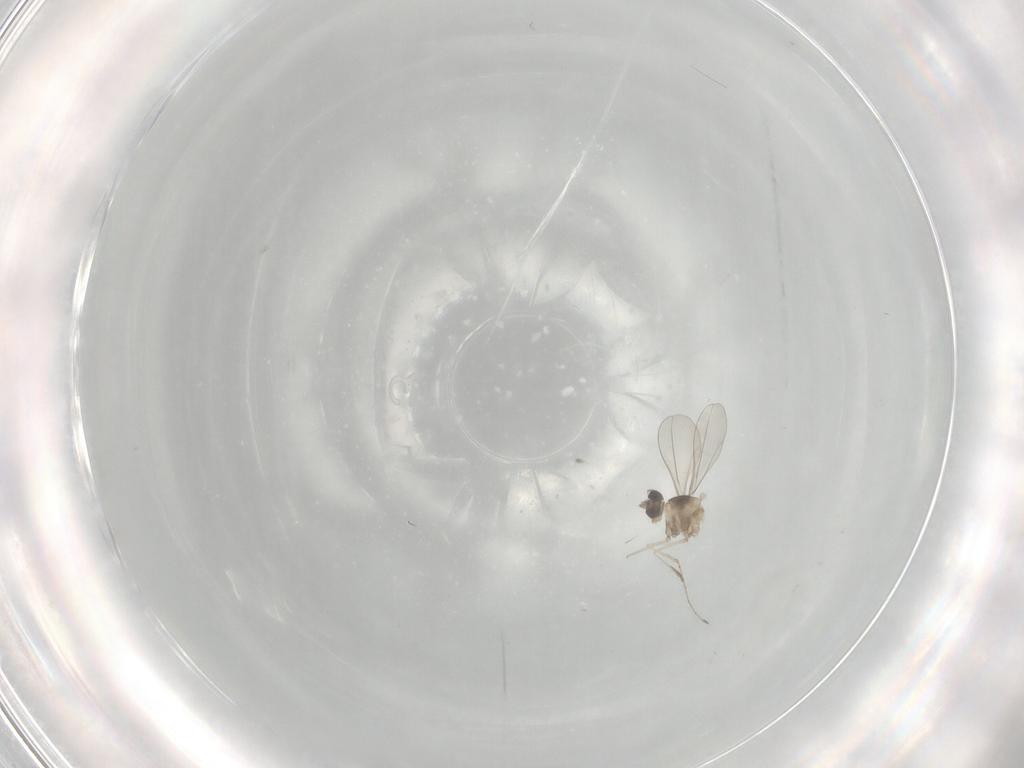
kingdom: Animalia
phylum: Arthropoda
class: Insecta
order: Diptera
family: Cecidomyiidae
